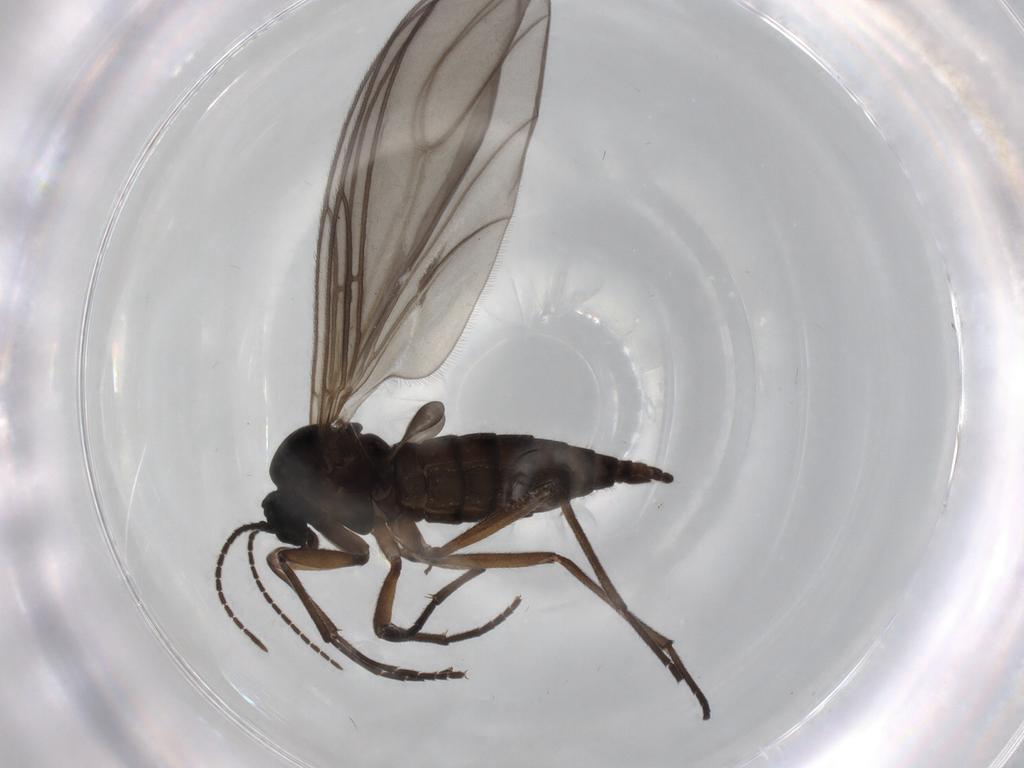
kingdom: Animalia
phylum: Arthropoda
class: Insecta
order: Diptera
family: Sciaridae
